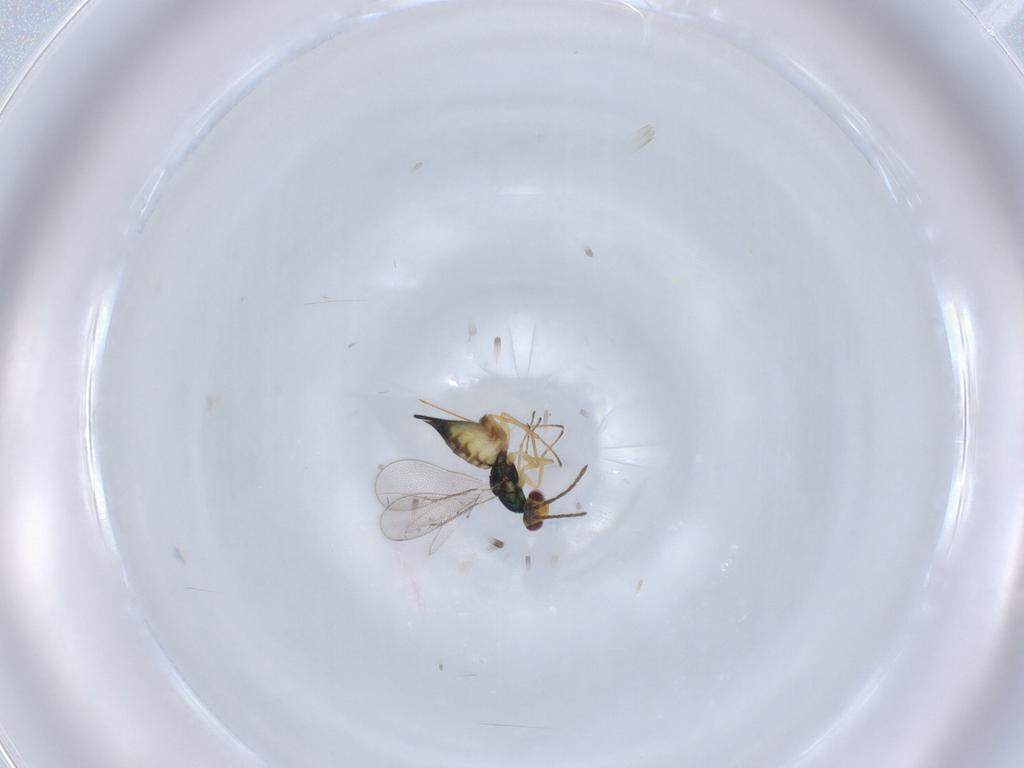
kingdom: Animalia
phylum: Arthropoda
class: Insecta
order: Hymenoptera
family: Eulophidae
